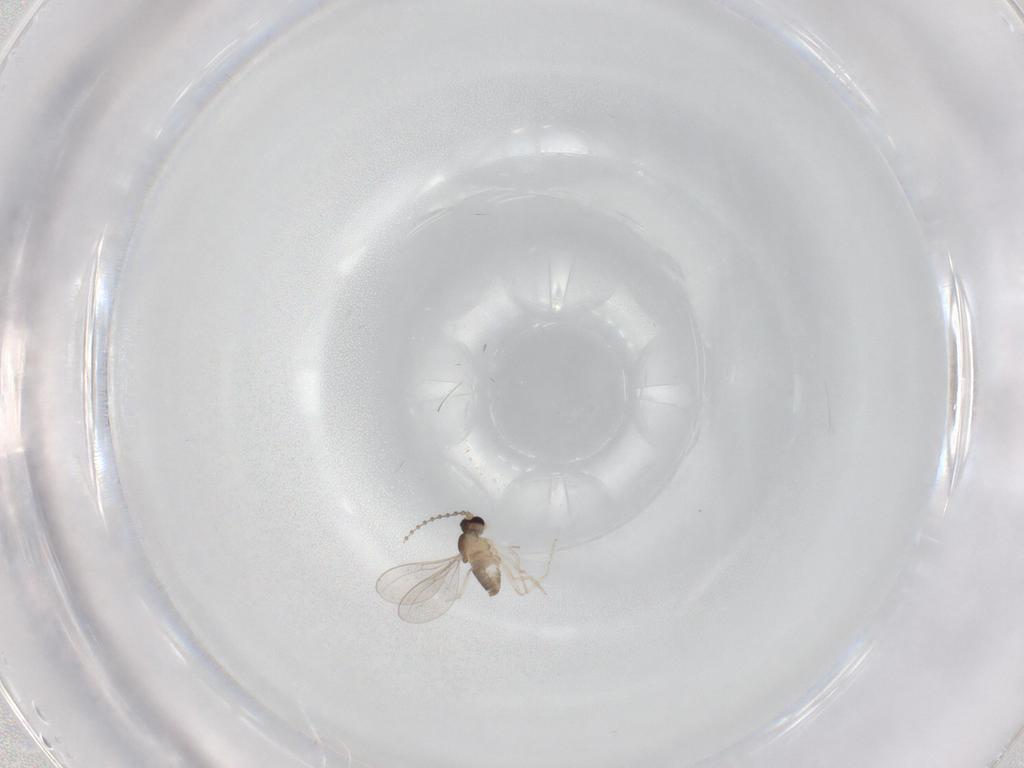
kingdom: Animalia
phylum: Arthropoda
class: Insecta
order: Diptera
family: Cecidomyiidae
